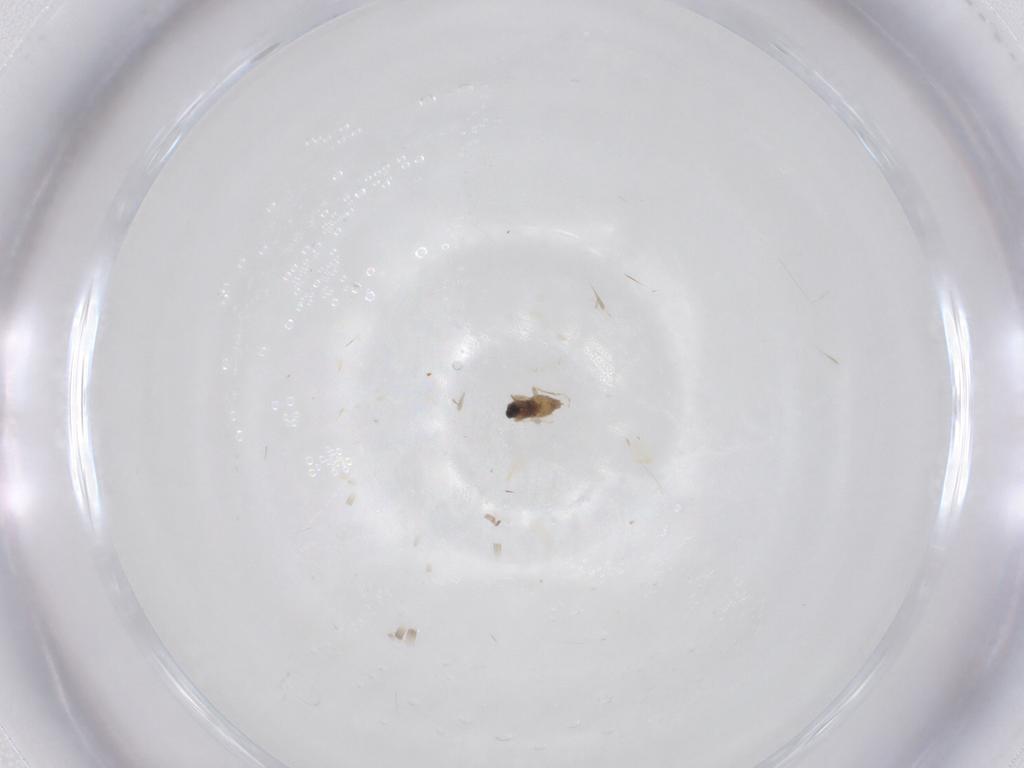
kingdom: Animalia
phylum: Arthropoda
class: Insecta
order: Diptera
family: Cecidomyiidae
